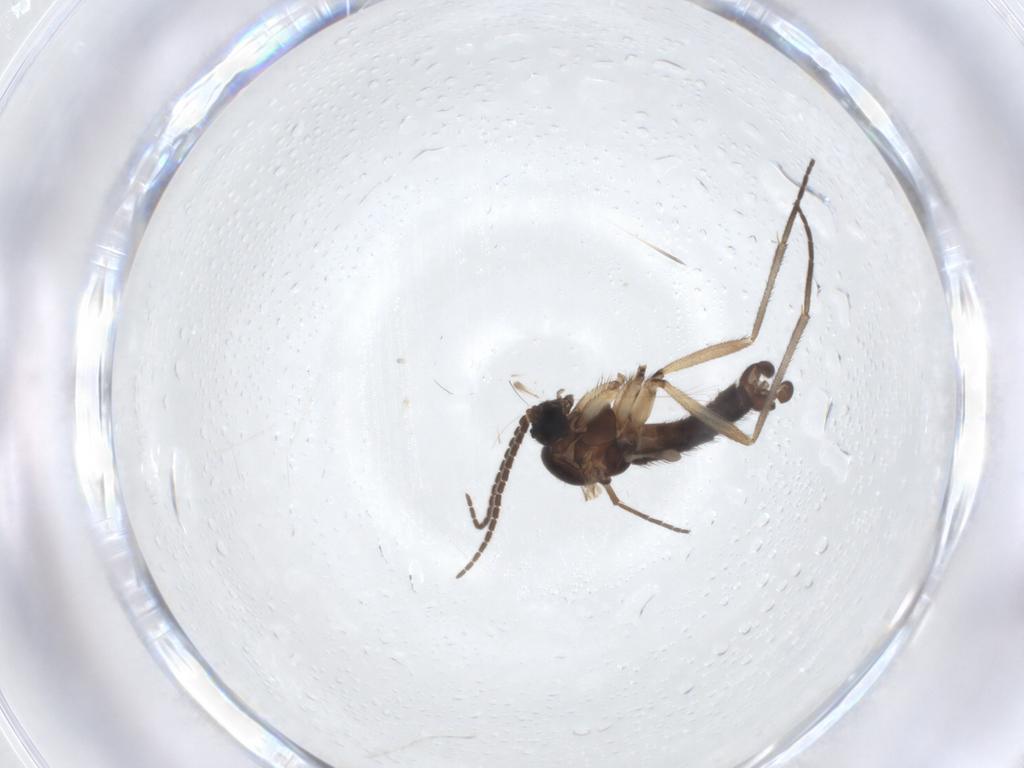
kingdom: Animalia
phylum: Arthropoda
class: Insecta
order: Diptera
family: Sciaridae
